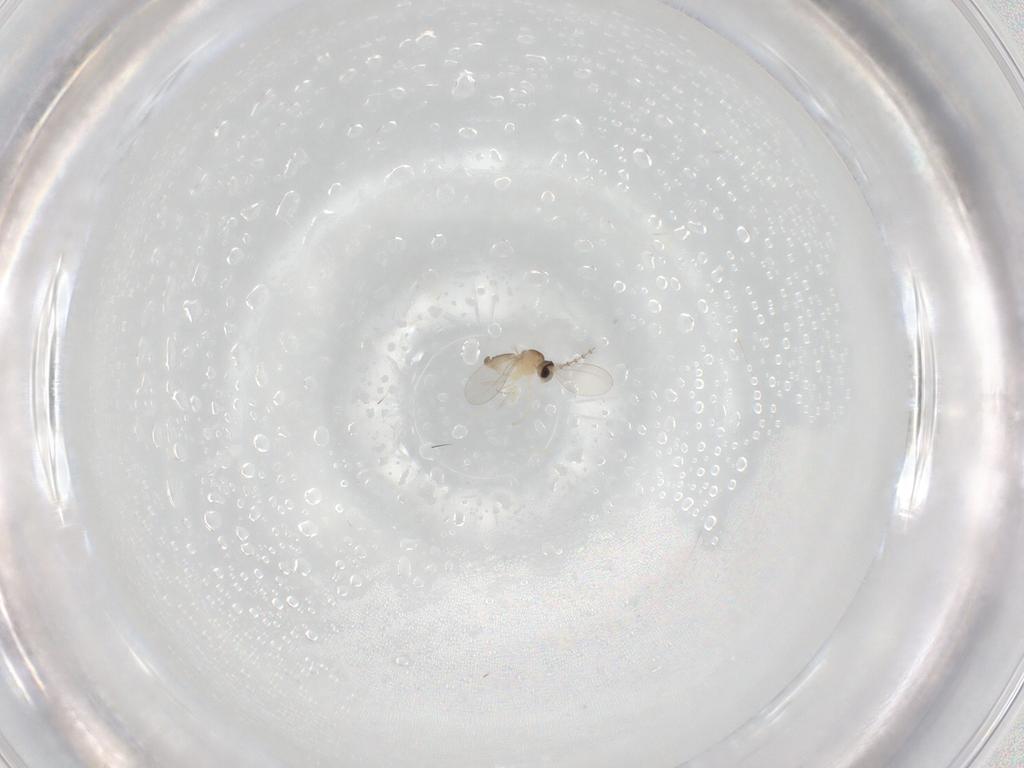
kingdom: Animalia
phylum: Arthropoda
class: Insecta
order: Diptera
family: Cecidomyiidae
